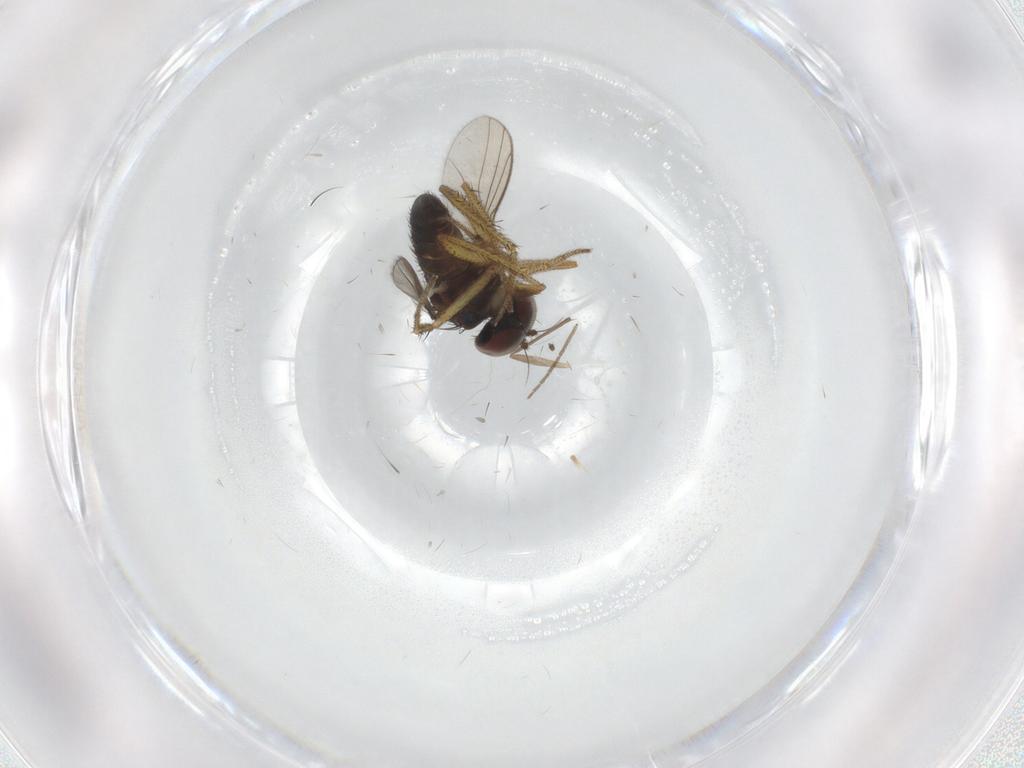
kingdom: Animalia
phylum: Arthropoda
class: Insecta
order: Diptera
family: Chironomidae
